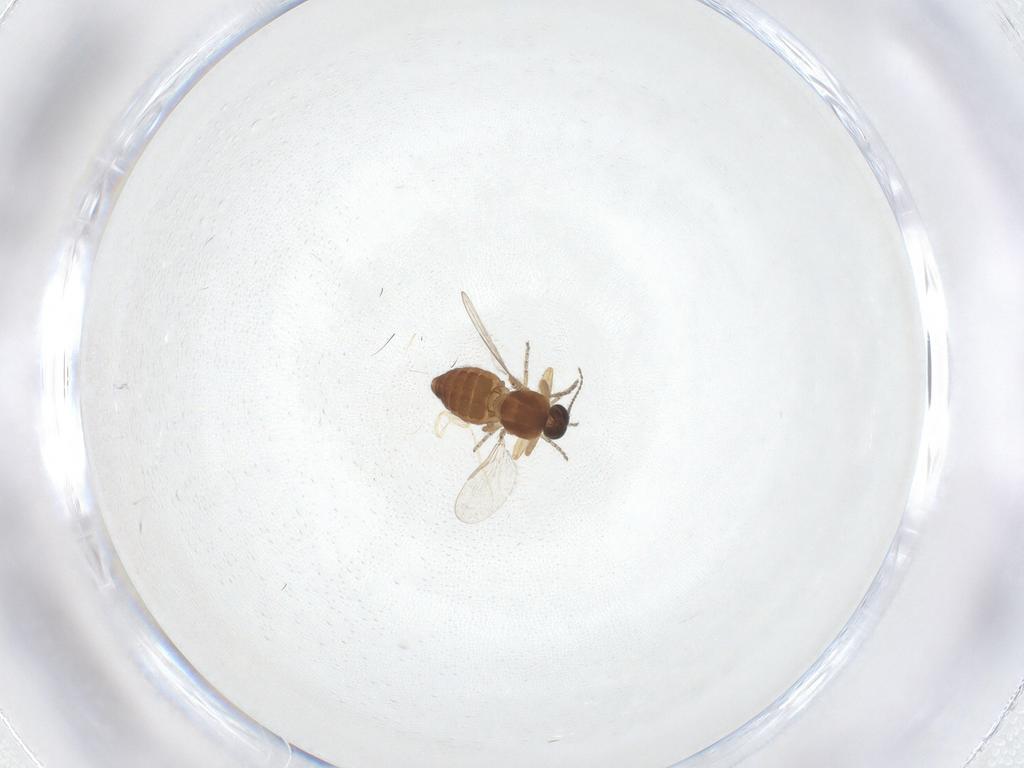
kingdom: Animalia
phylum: Arthropoda
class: Insecta
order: Diptera
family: Ceratopogonidae
